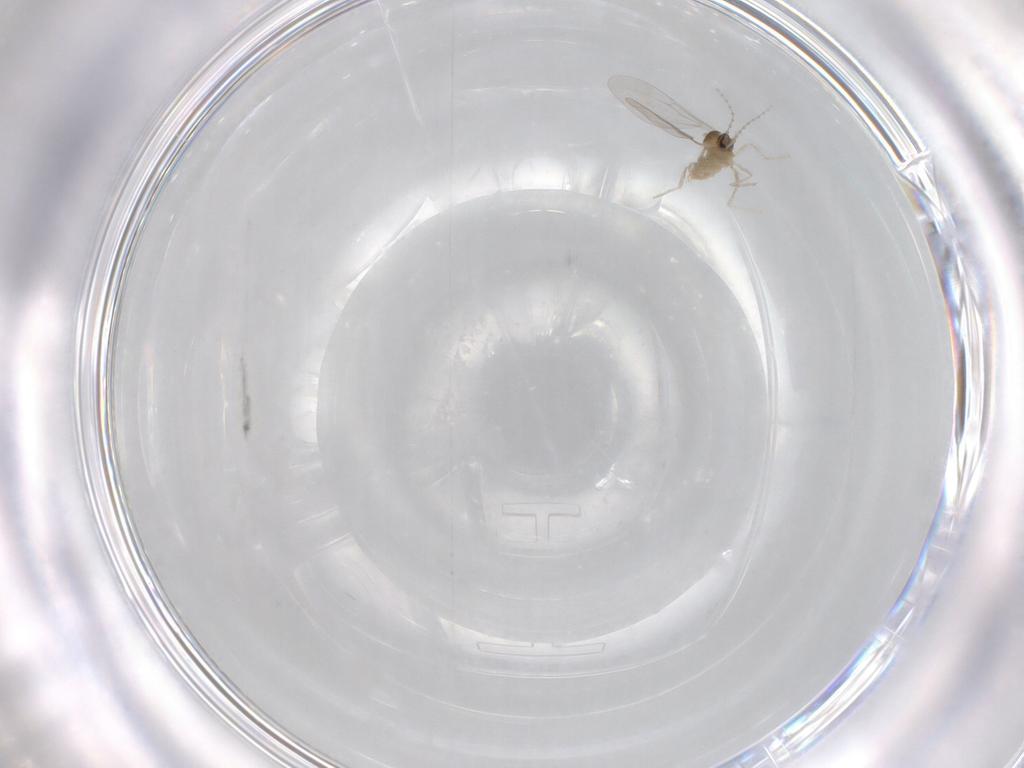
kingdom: Animalia
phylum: Arthropoda
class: Insecta
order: Diptera
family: Cecidomyiidae
